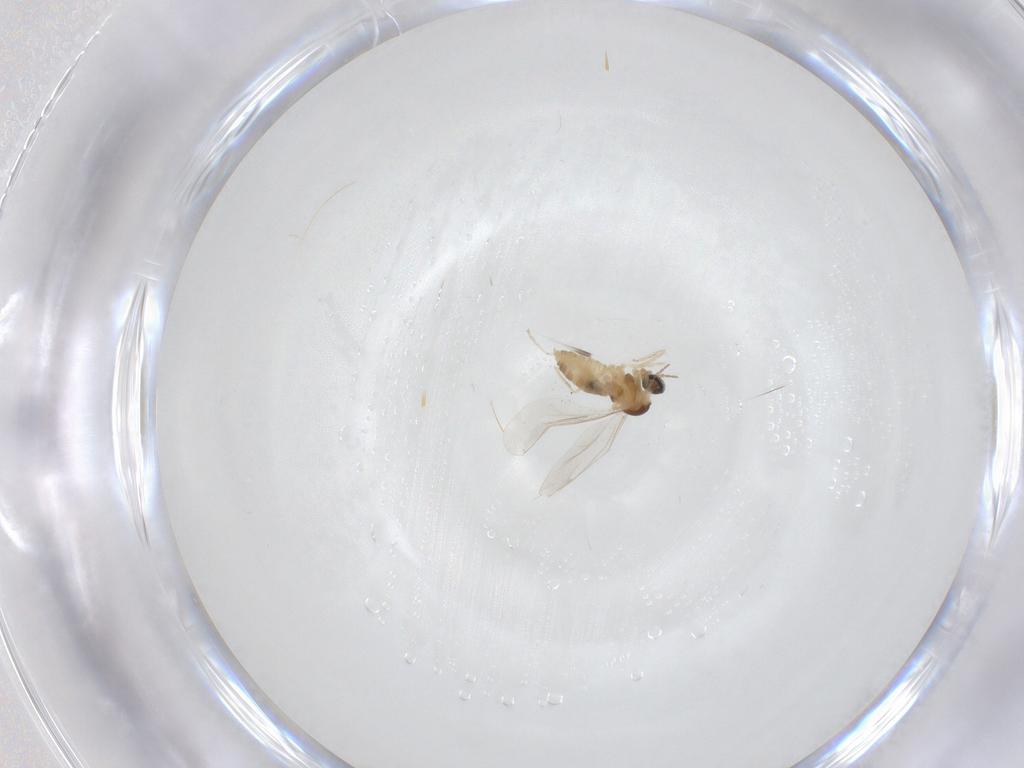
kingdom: Animalia
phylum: Arthropoda
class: Insecta
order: Diptera
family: Cecidomyiidae
